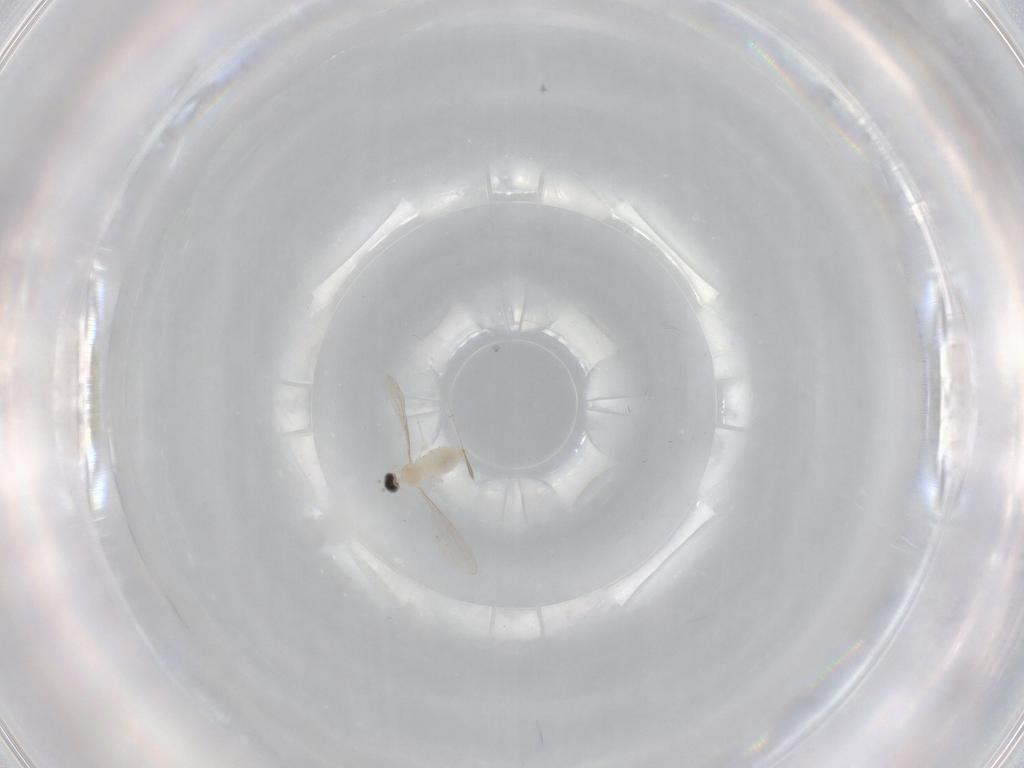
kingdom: Animalia
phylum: Arthropoda
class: Insecta
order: Diptera
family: Cecidomyiidae
